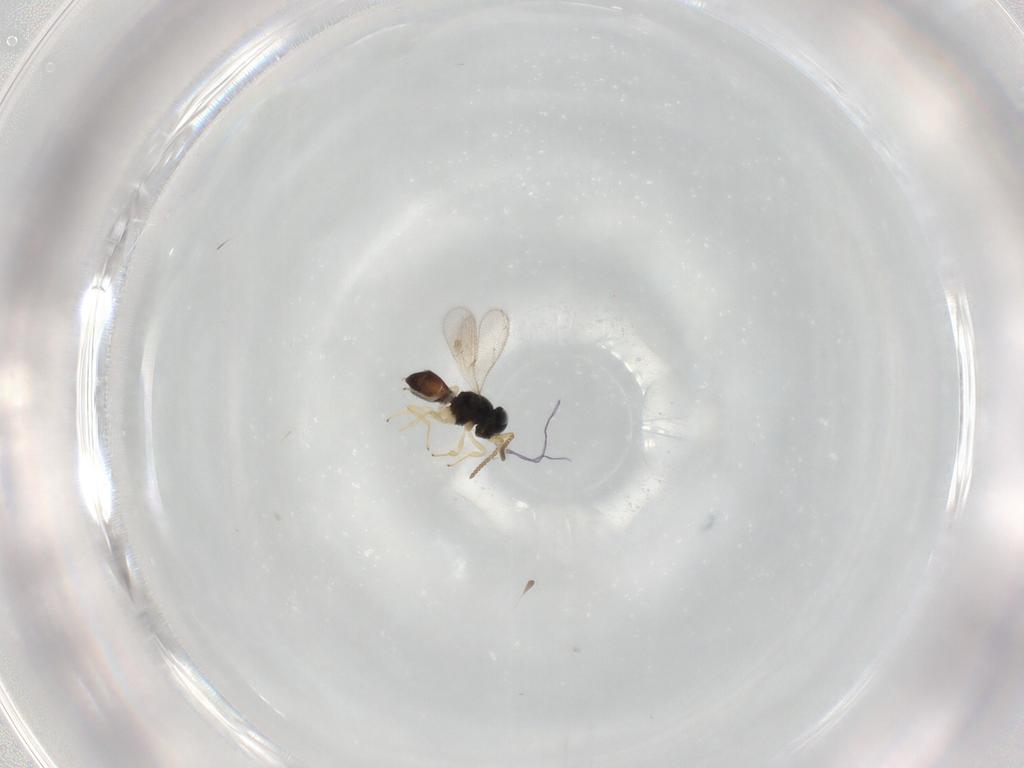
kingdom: Animalia
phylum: Arthropoda
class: Insecta
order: Hymenoptera
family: Scelionidae
